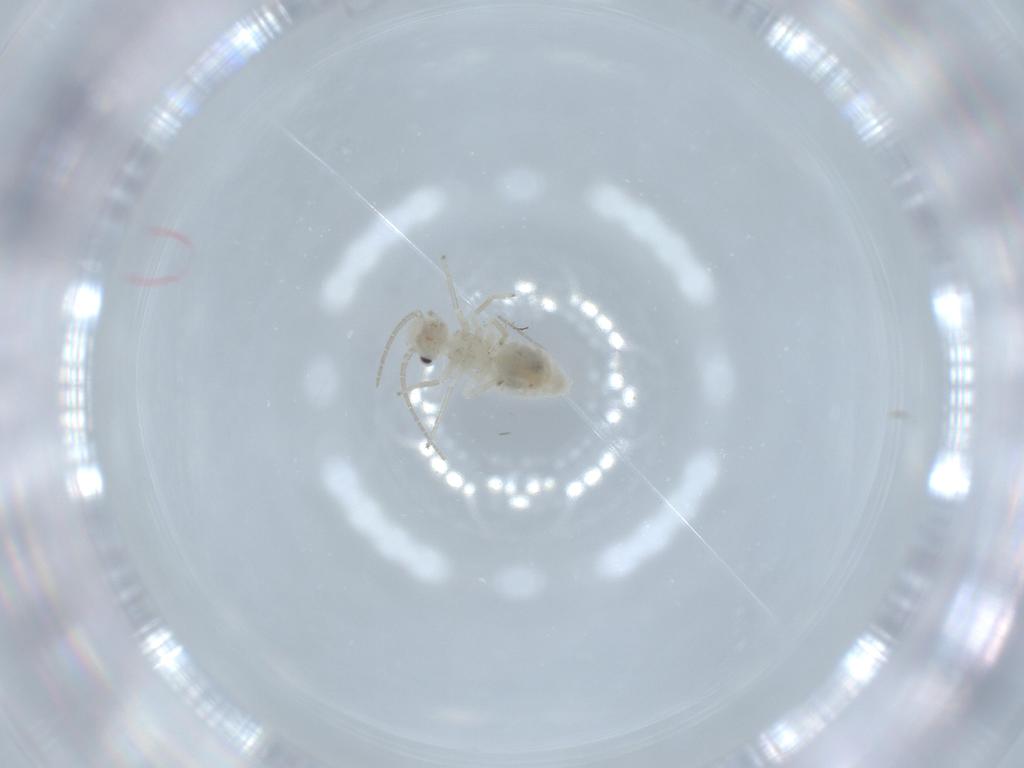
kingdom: Animalia
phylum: Arthropoda
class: Insecta
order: Psocodea
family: Caeciliusidae
